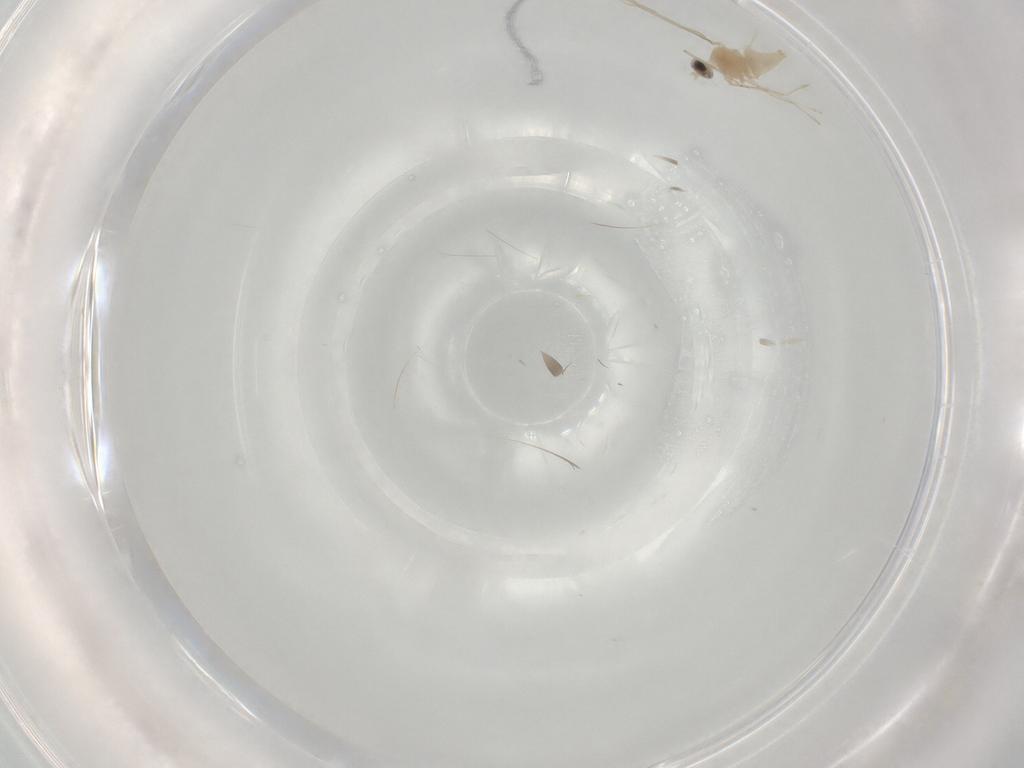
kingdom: Animalia
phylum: Arthropoda
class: Insecta
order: Diptera
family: Cecidomyiidae
